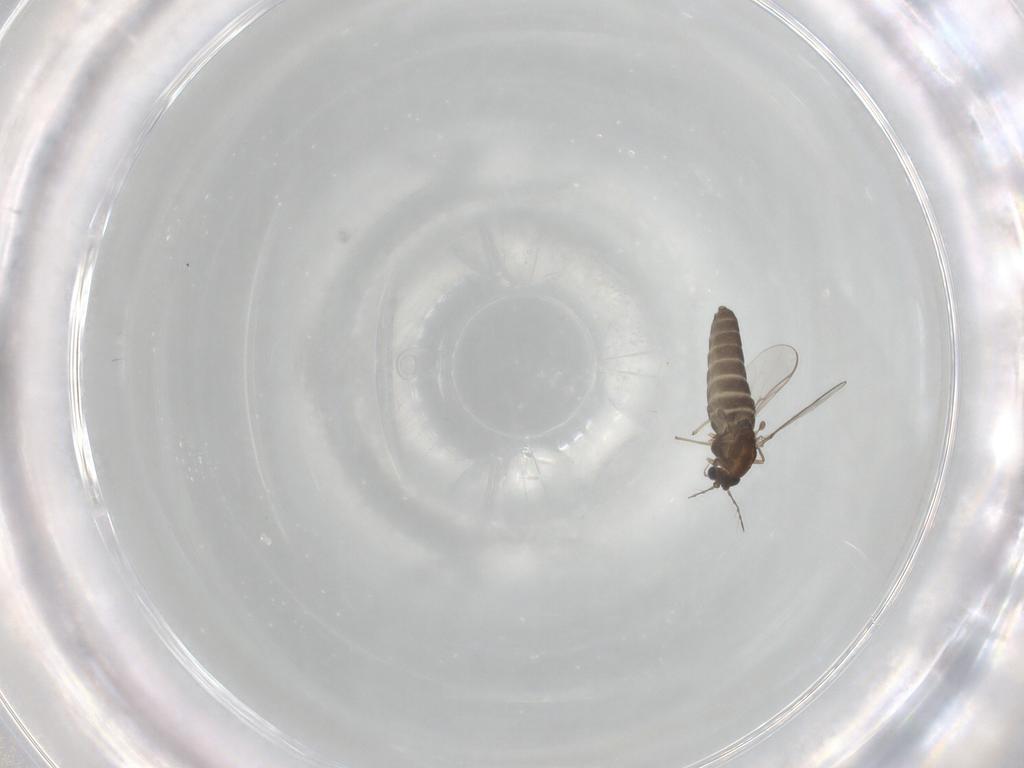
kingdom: Animalia
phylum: Arthropoda
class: Insecta
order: Diptera
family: Chironomidae
